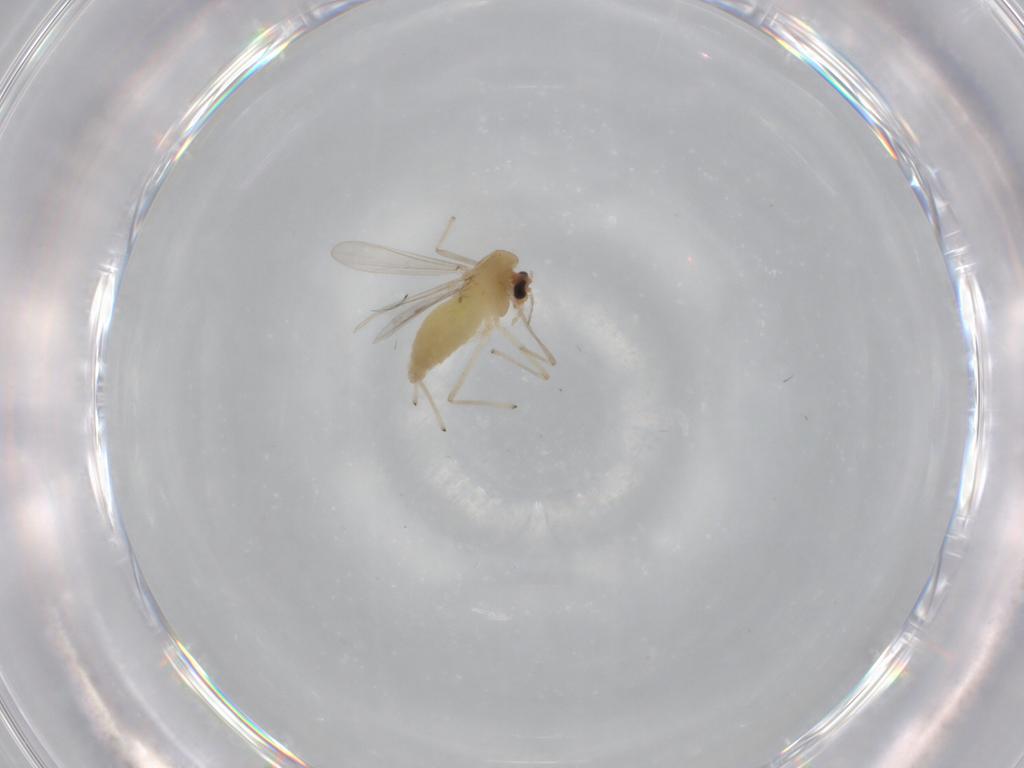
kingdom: Animalia
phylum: Arthropoda
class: Insecta
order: Diptera
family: Chironomidae
